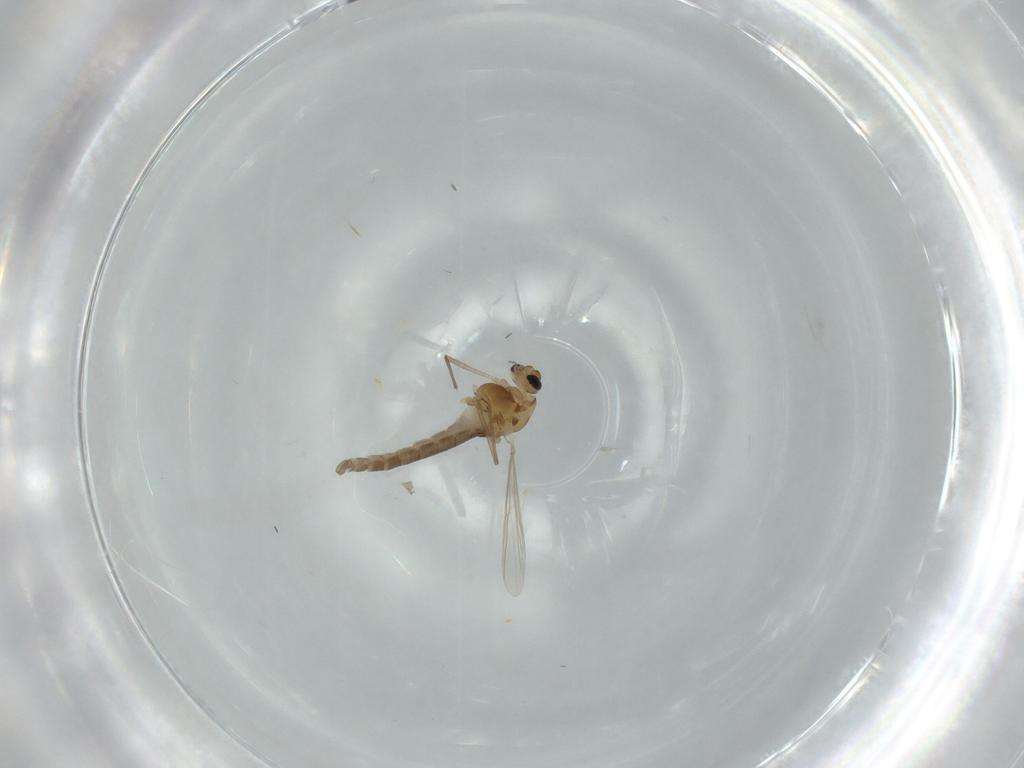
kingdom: Animalia
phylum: Arthropoda
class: Insecta
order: Diptera
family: Chironomidae
